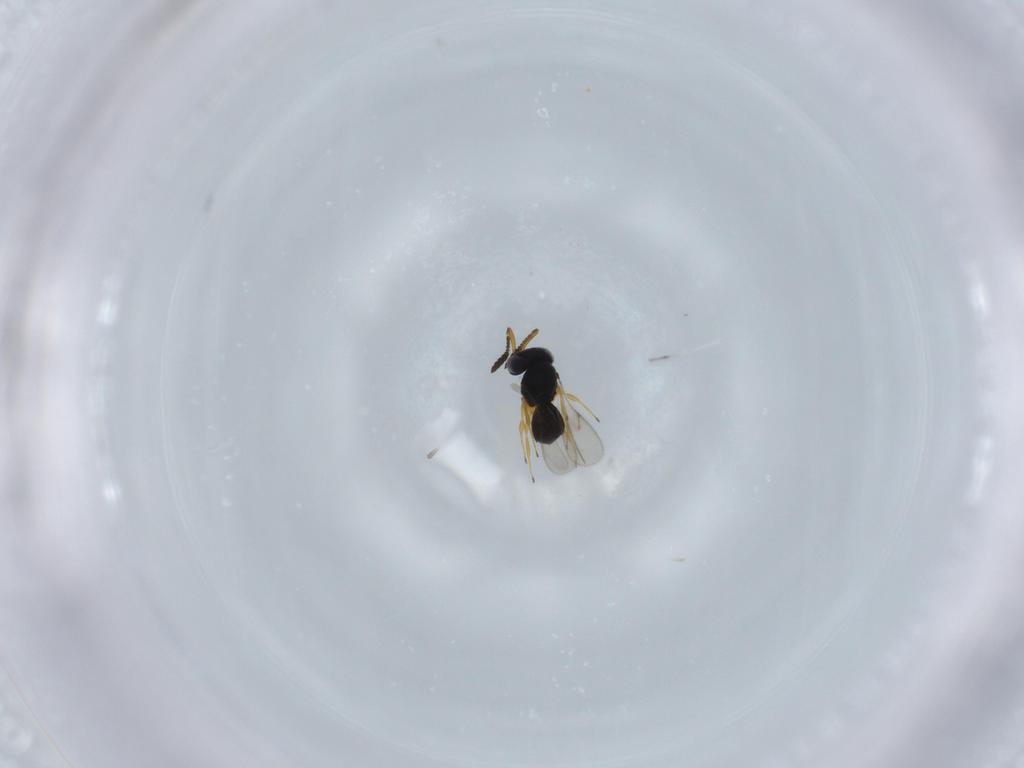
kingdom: Animalia
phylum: Arthropoda
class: Insecta
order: Hymenoptera
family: Scelionidae
